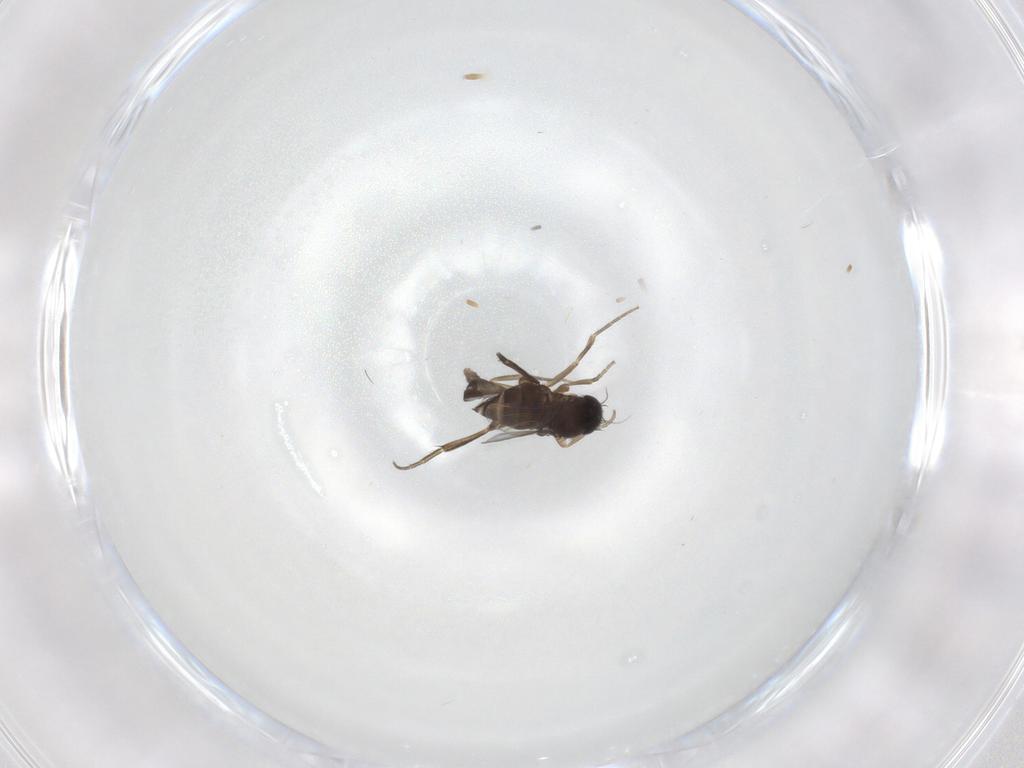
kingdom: Animalia
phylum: Arthropoda
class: Insecta
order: Diptera
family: Phoridae
